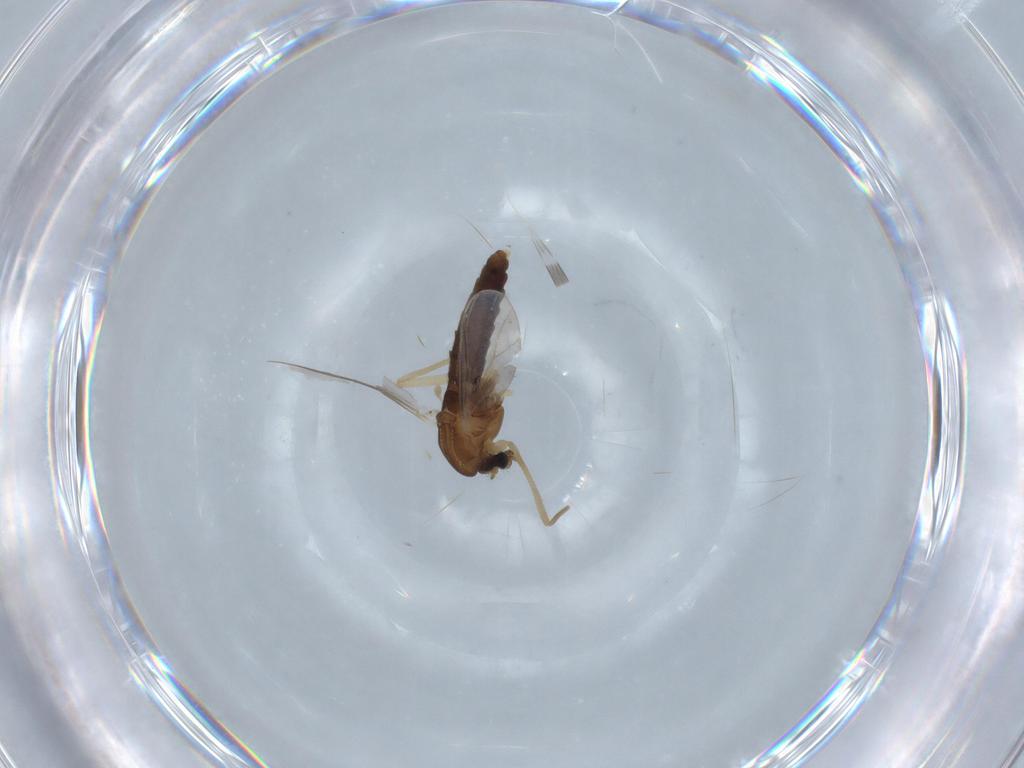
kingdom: Animalia
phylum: Arthropoda
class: Insecta
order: Diptera
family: Chironomidae
